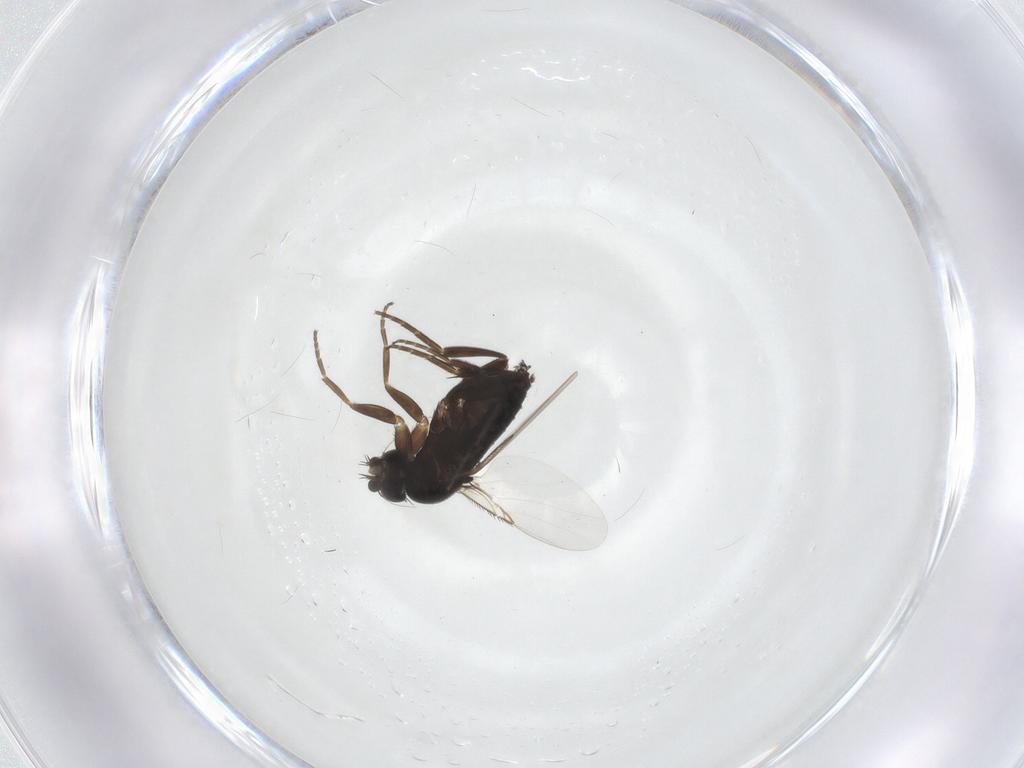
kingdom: Animalia
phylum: Arthropoda
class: Insecta
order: Diptera
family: Chironomidae
